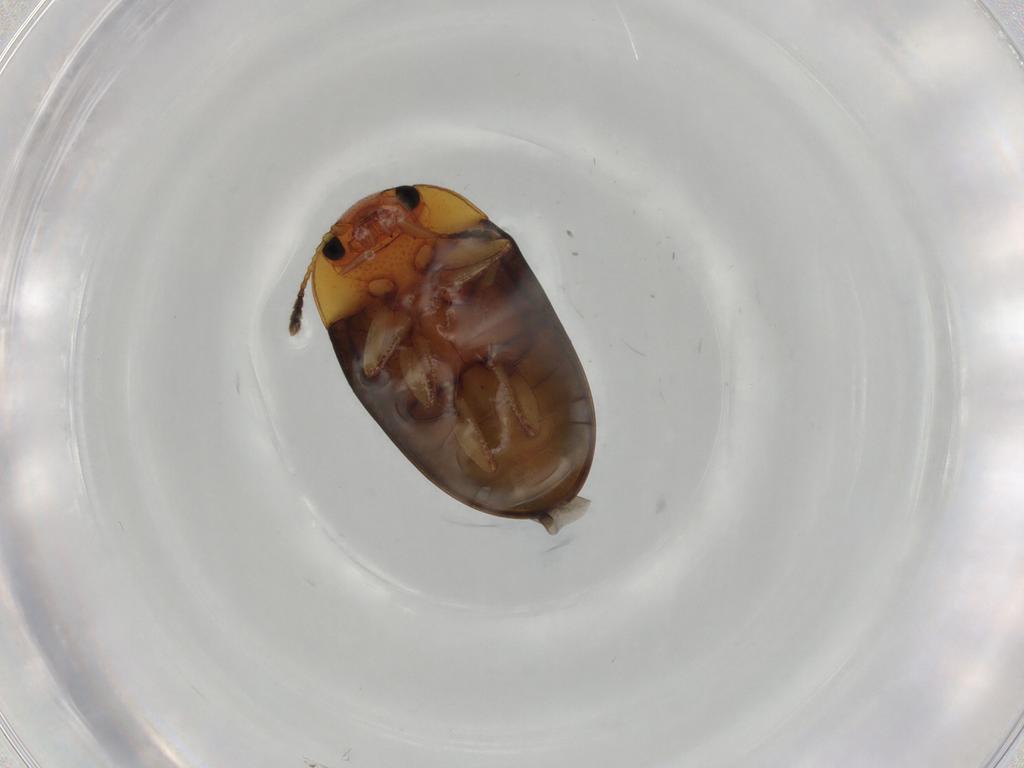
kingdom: Animalia
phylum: Arthropoda
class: Insecta
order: Coleoptera
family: Erotylidae
